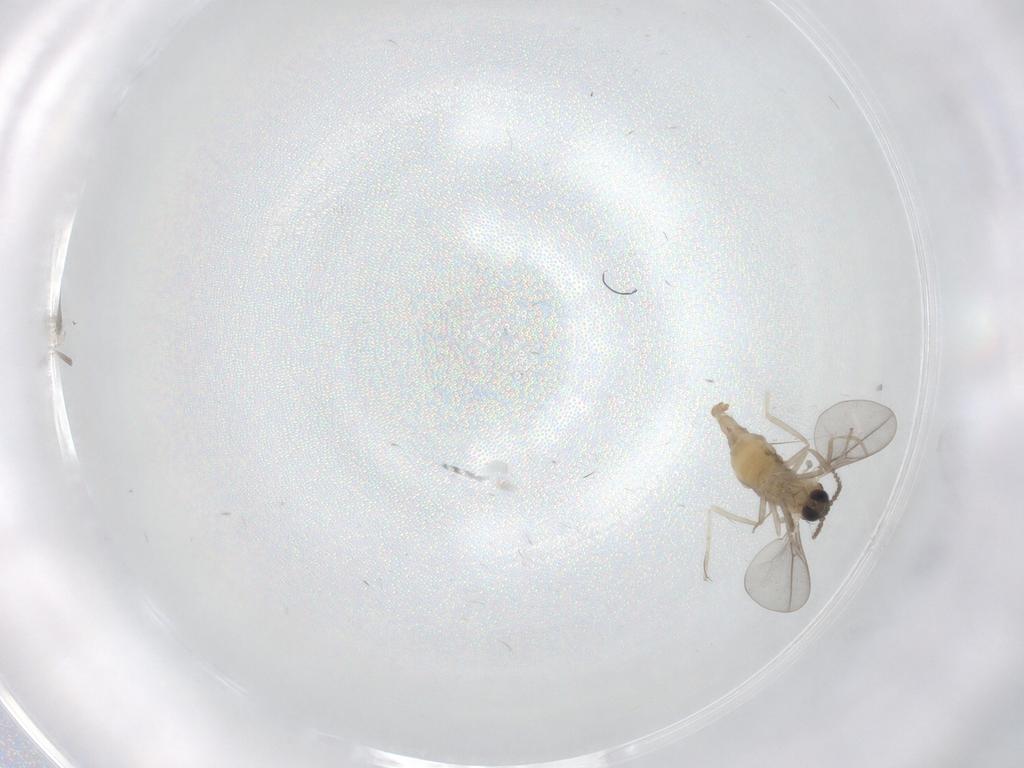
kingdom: Animalia
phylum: Arthropoda
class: Insecta
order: Diptera
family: Cecidomyiidae
